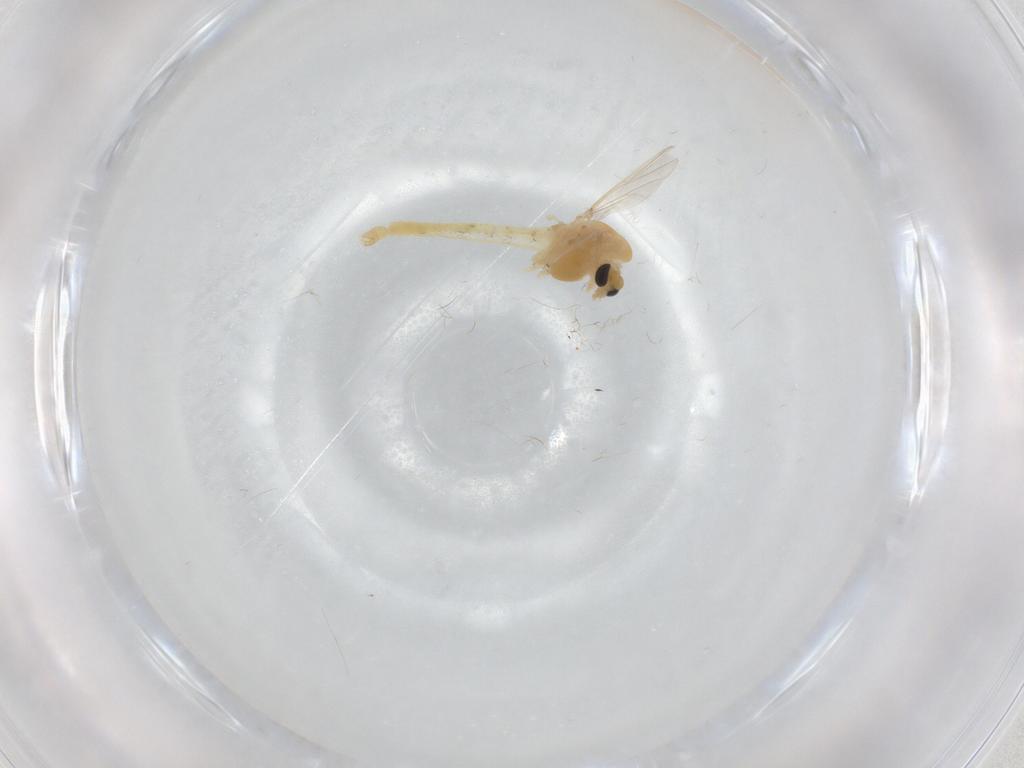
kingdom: Animalia
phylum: Arthropoda
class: Insecta
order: Diptera
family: Chironomidae
